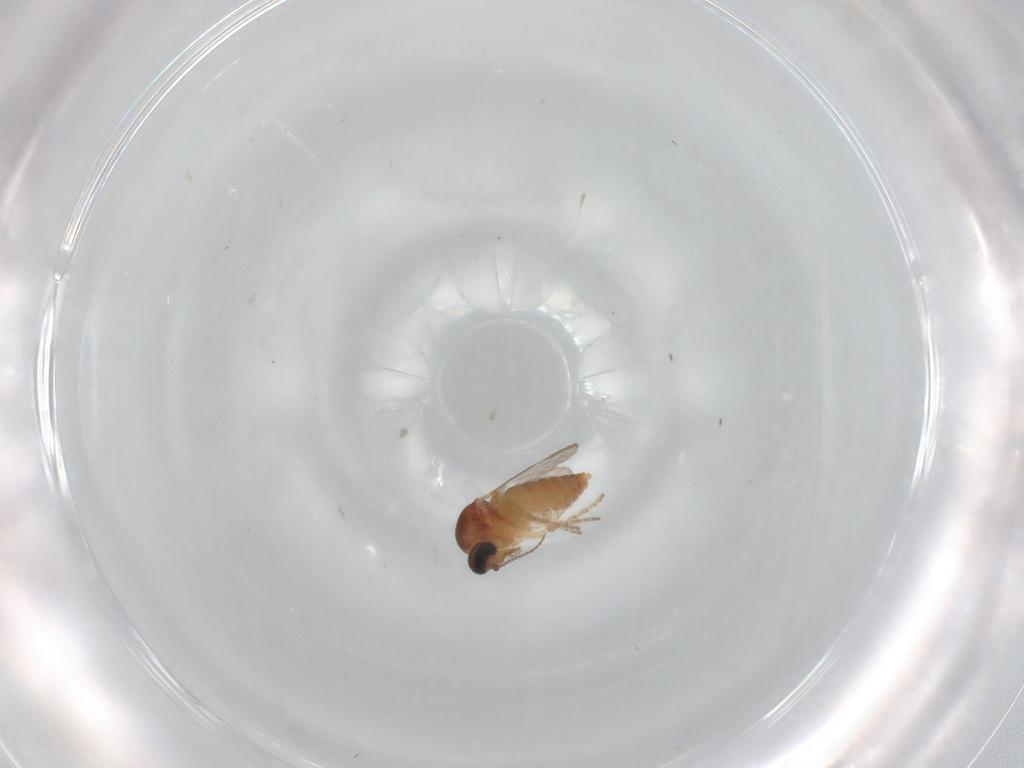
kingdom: Animalia
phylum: Arthropoda
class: Insecta
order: Diptera
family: Ceratopogonidae
